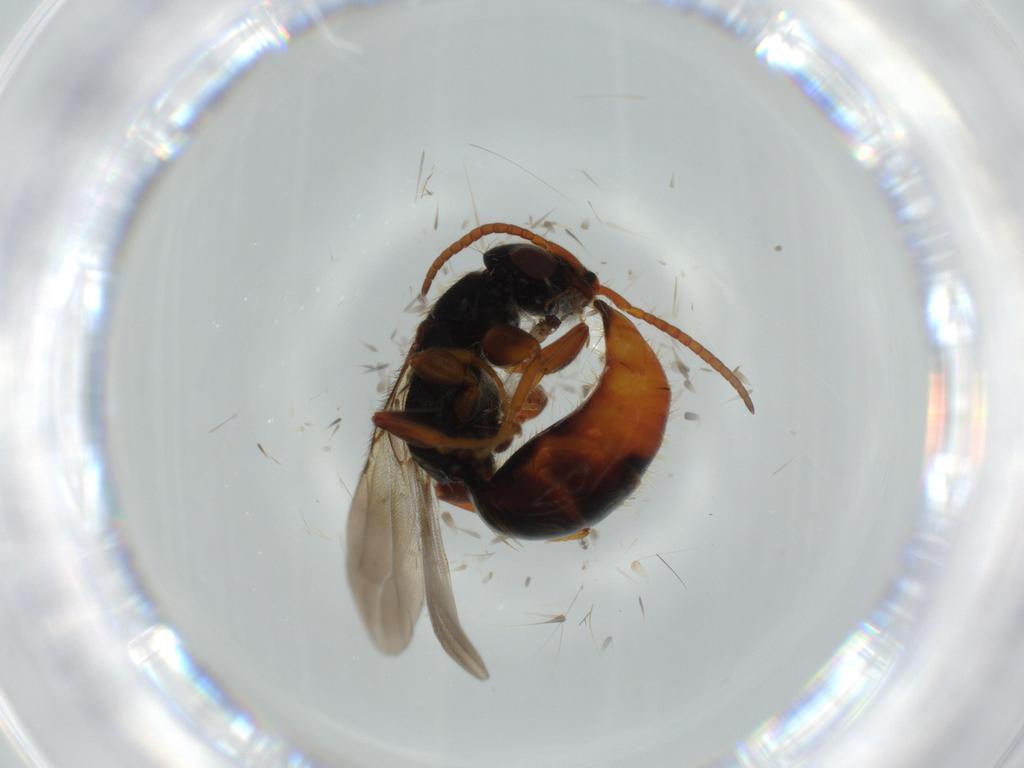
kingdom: Animalia
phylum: Arthropoda
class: Insecta
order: Hymenoptera
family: Bethylidae
